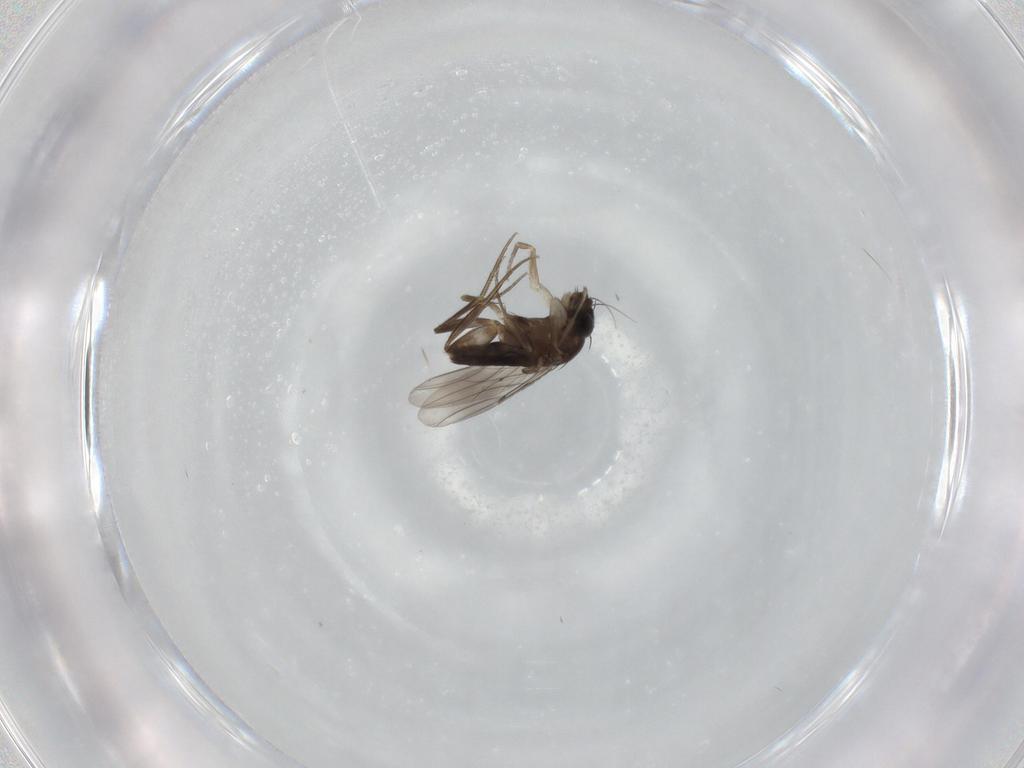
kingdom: Animalia
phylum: Arthropoda
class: Insecta
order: Diptera
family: Phoridae
